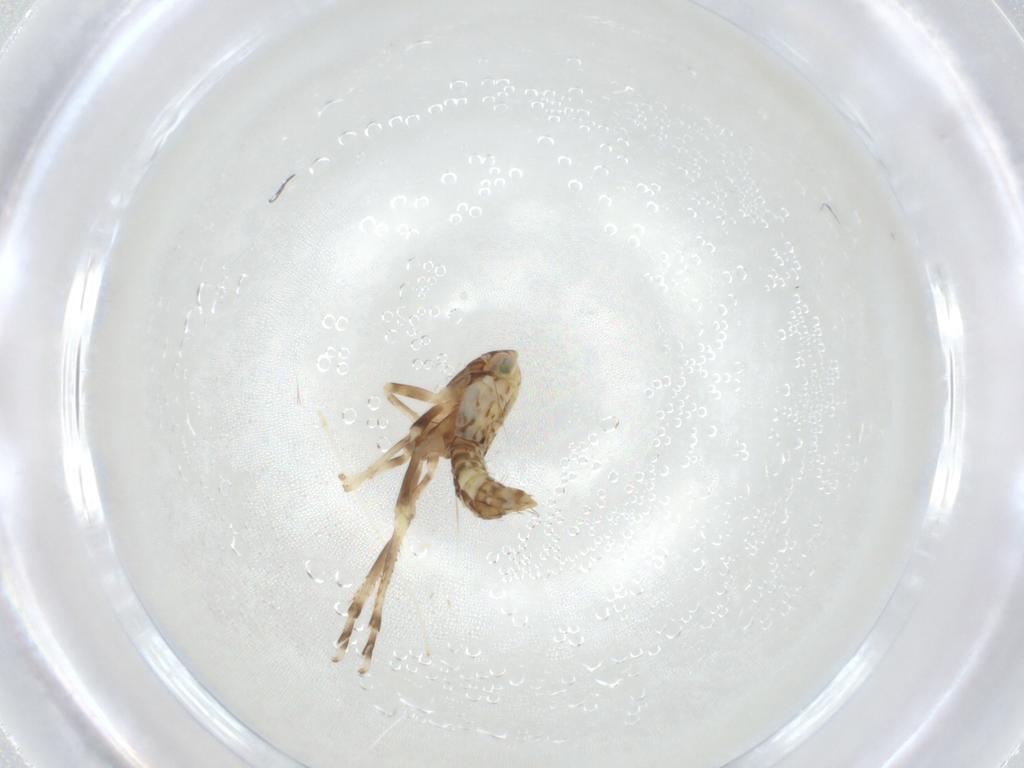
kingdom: Animalia
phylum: Arthropoda
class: Insecta
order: Hemiptera
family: Cicadellidae
